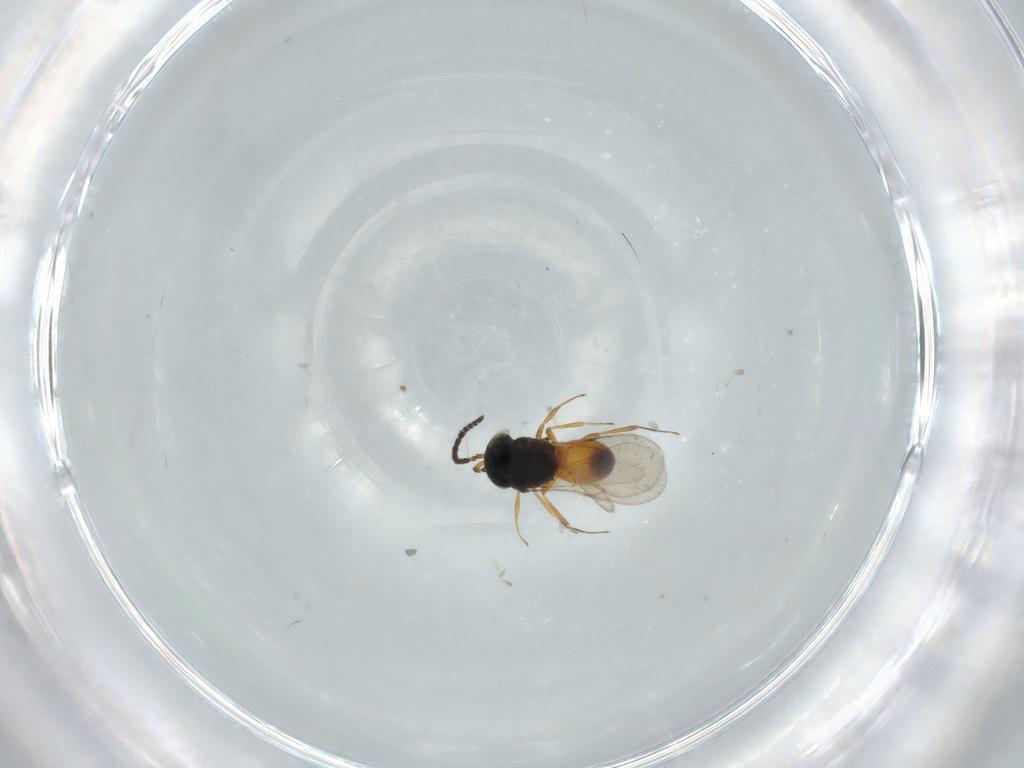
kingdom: Animalia
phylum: Arthropoda
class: Insecta
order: Hymenoptera
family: Scelionidae
